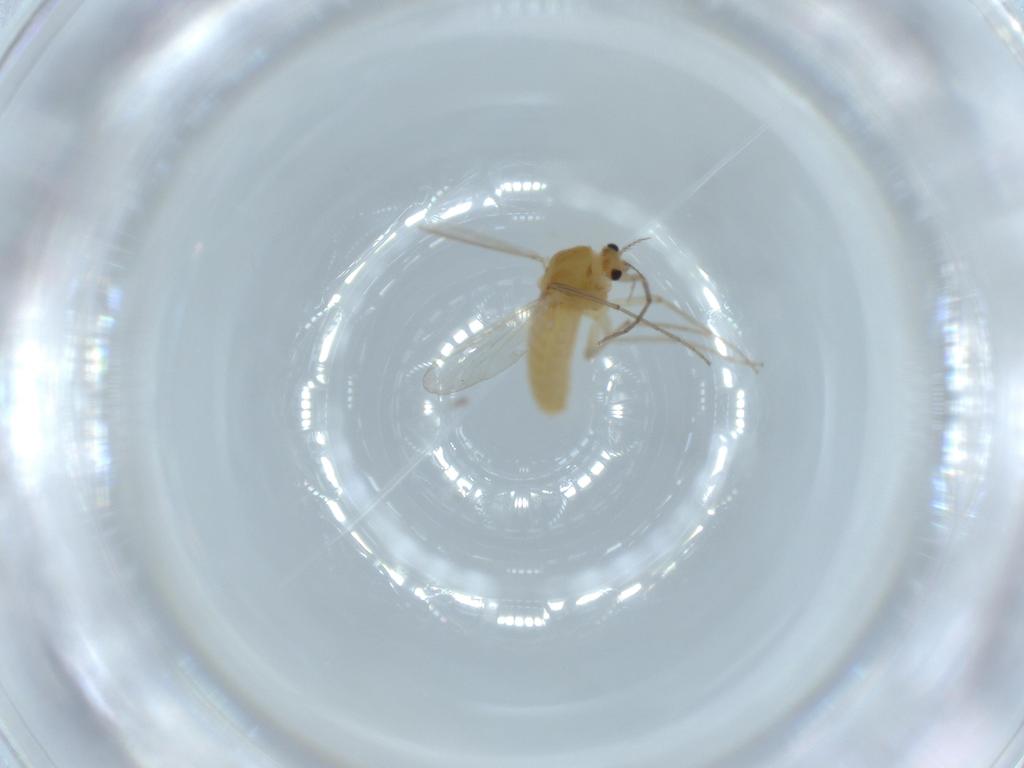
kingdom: Animalia
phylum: Arthropoda
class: Insecta
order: Diptera
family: Chironomidae
